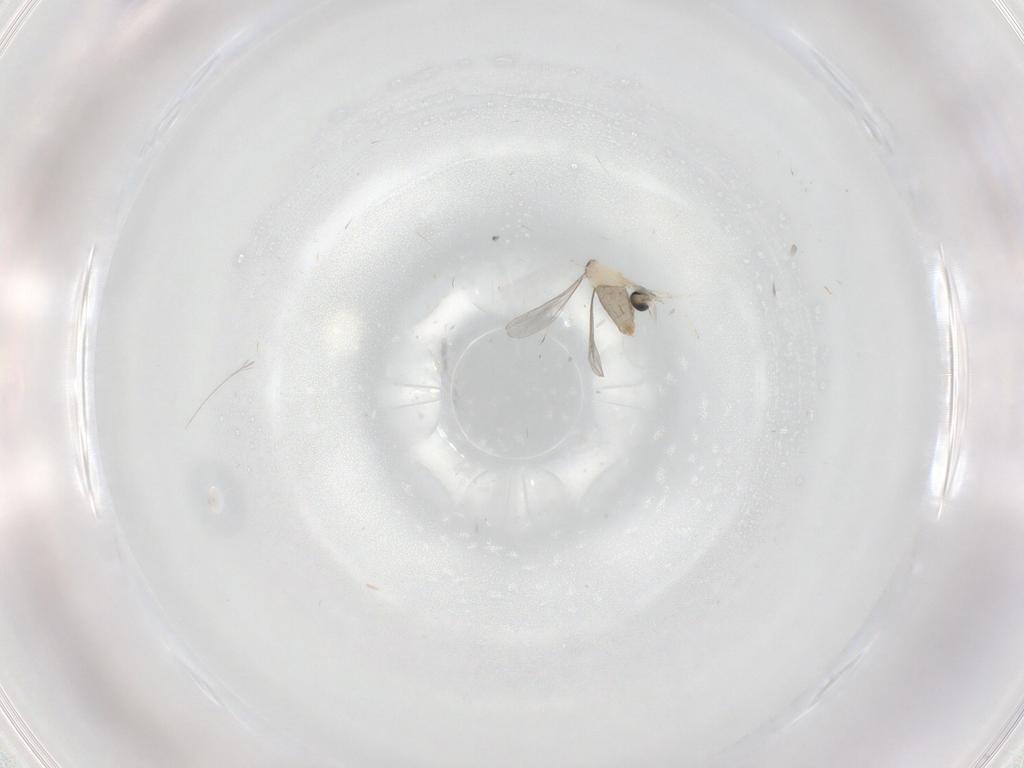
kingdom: Animalia
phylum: Arthropoda
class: Insecta
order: Diptera
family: Cecidomyiidae
